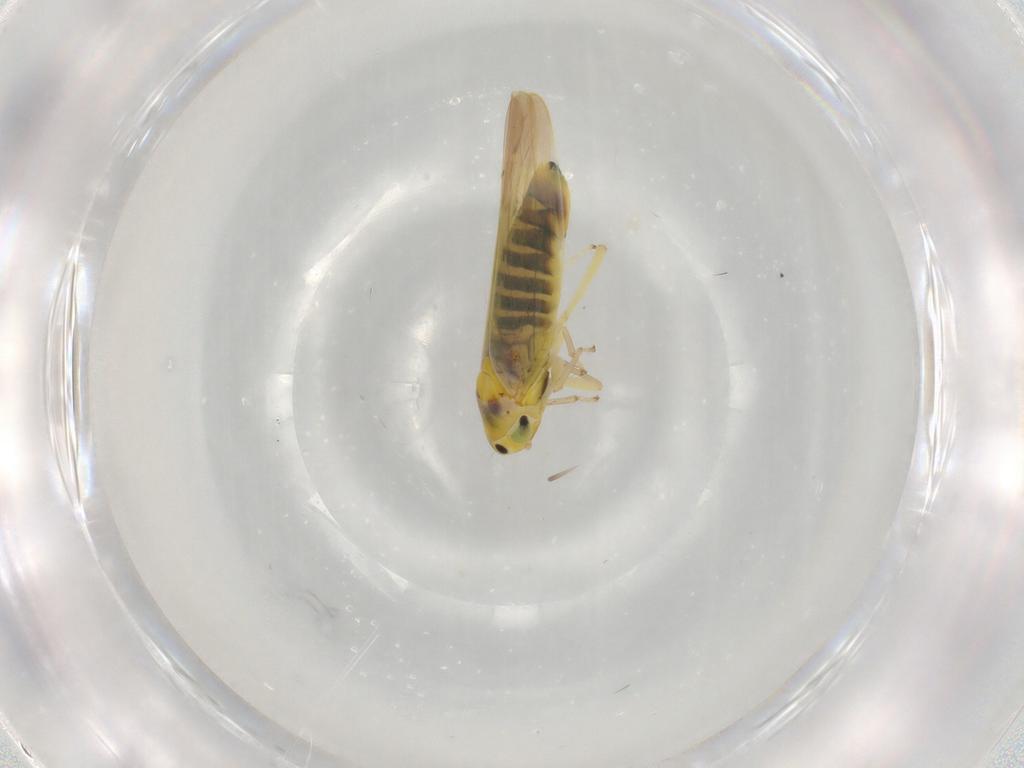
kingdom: Animalia
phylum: Arthropoda
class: Insecta
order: Hemiptera
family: Cicadellidae
